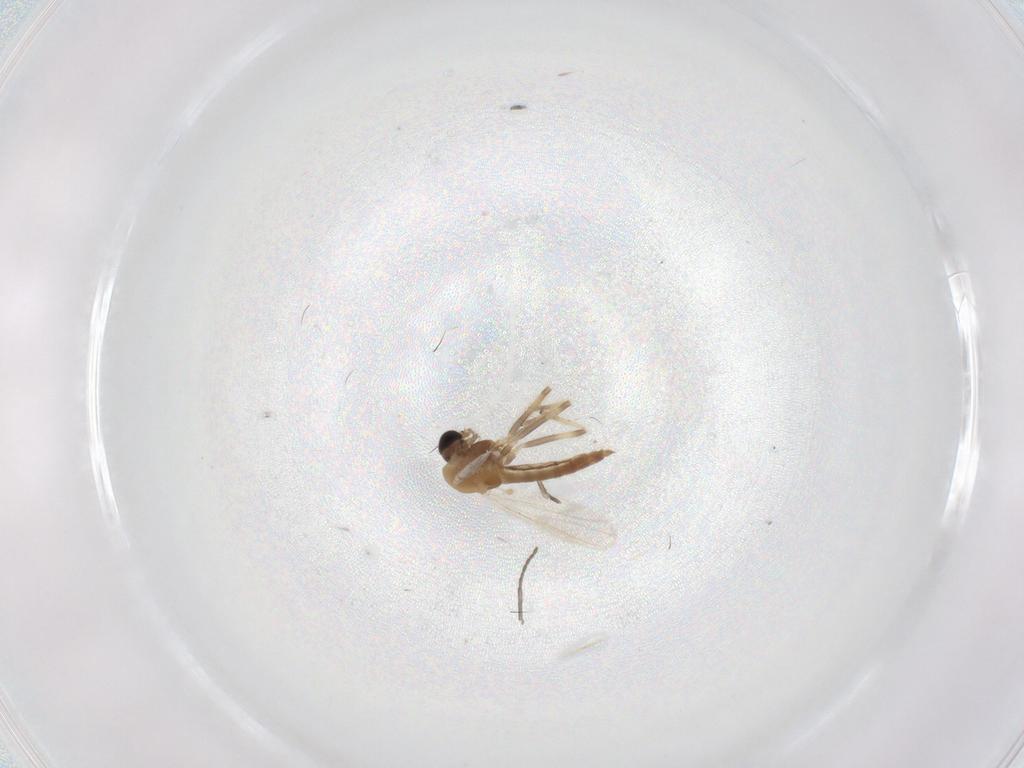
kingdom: Animalia
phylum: Arthropoda
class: Insecta
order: Diptera
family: Chironomidae
